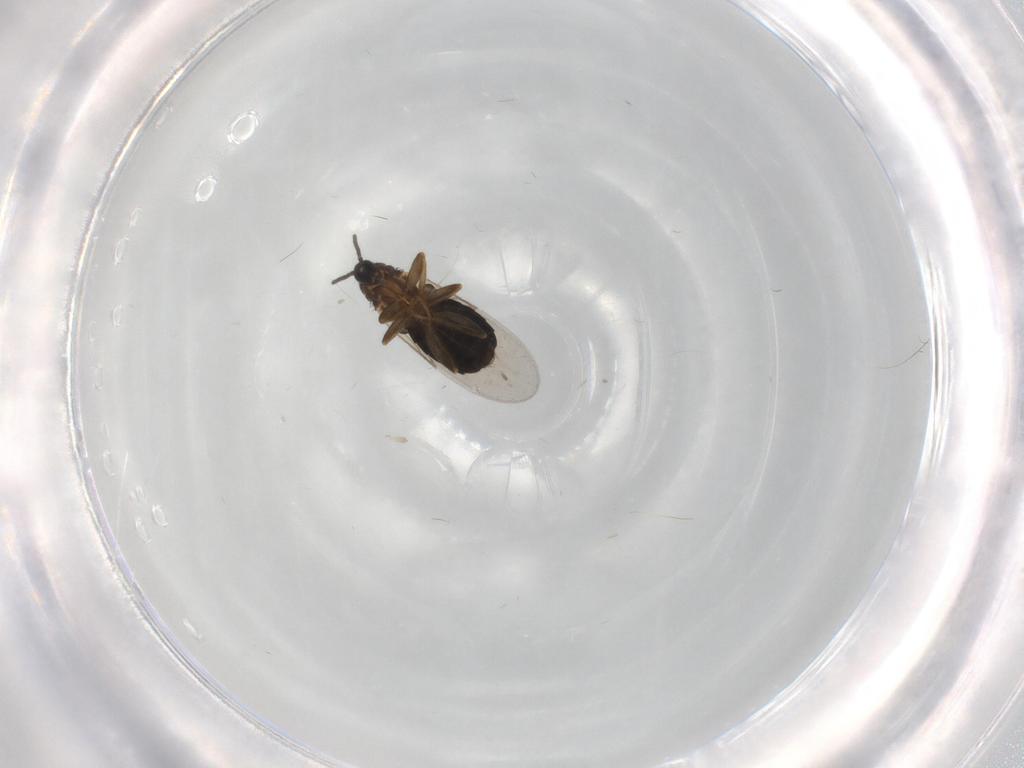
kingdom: Animalia
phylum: Arthropoda
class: Insecta
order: Diptera
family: Scatopsidae
